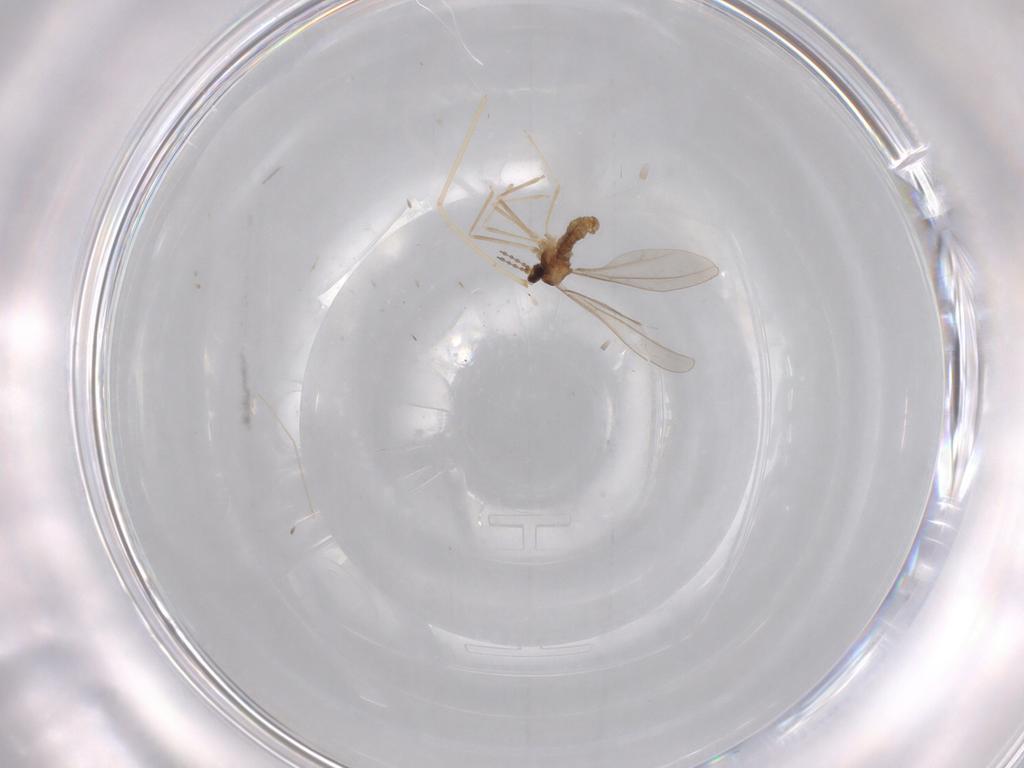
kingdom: Animalia
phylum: Arthropoda
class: Insecta
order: Diptera
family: Cecidomyiidae
